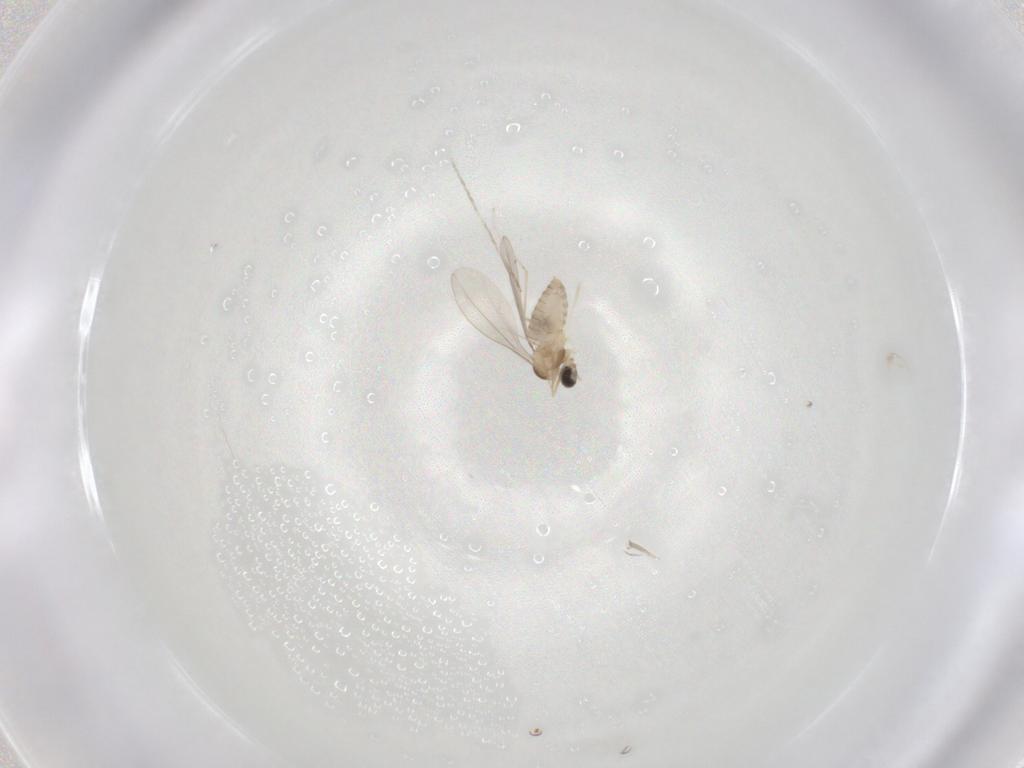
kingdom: Animalia
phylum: Arthropoda
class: Insecta
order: Diptera
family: Cecidomyiidae
